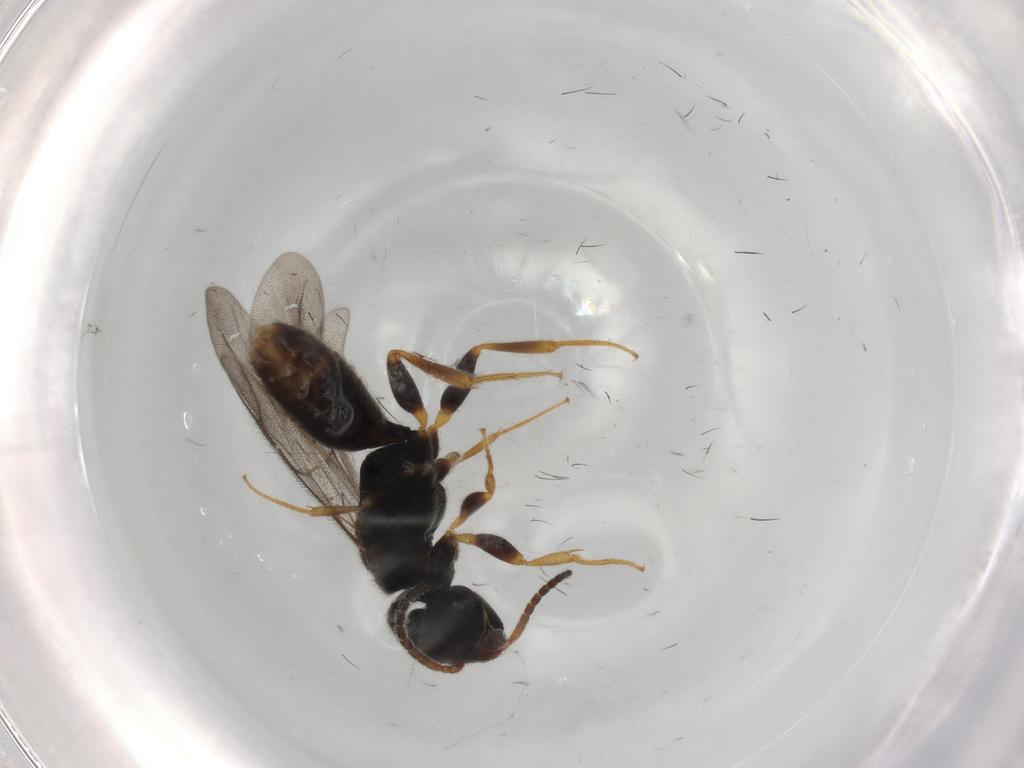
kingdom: Animalia
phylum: Arthropoda
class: Insecta
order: Hymenoptera
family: Bethylidae
